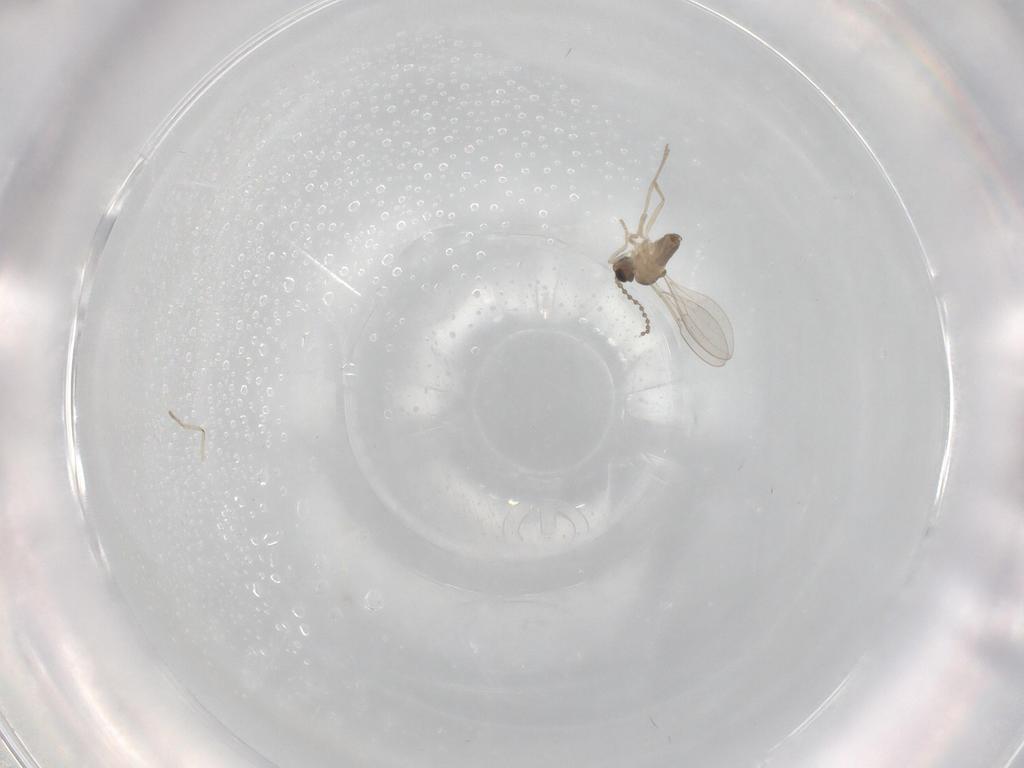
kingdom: Animalia
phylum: Arthropoda
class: Insecta
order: Diptera
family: Cecidomyiidae
